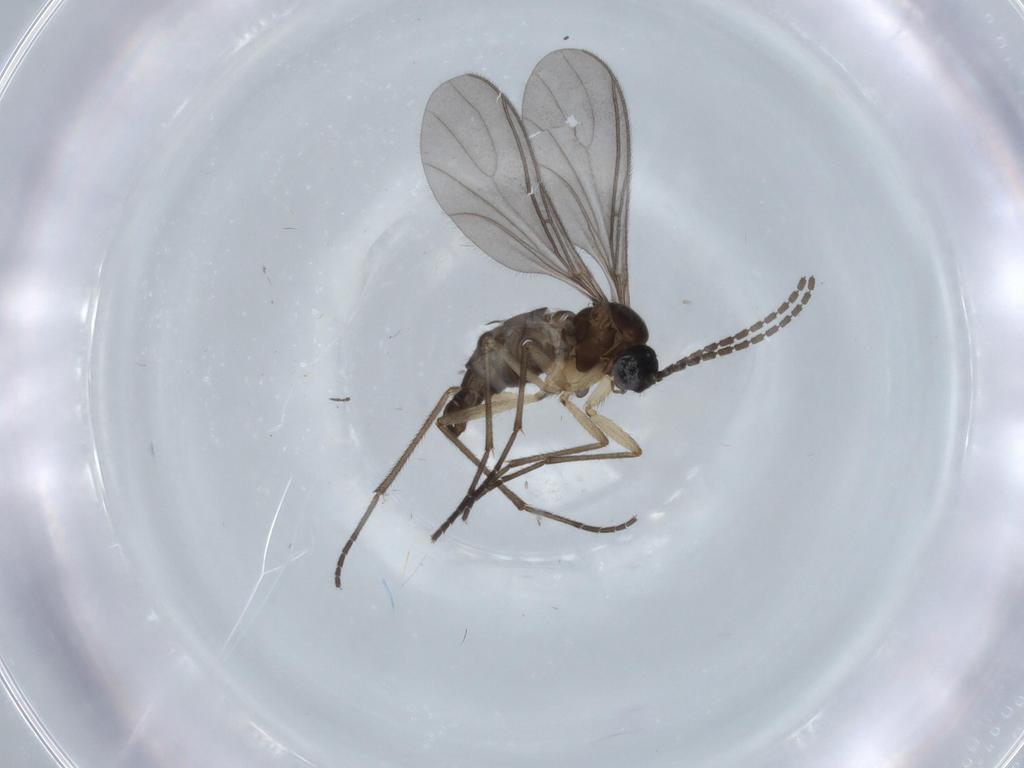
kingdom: Animalia
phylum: Arthropoda
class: Insecta
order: Diptera
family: Sciaridae
